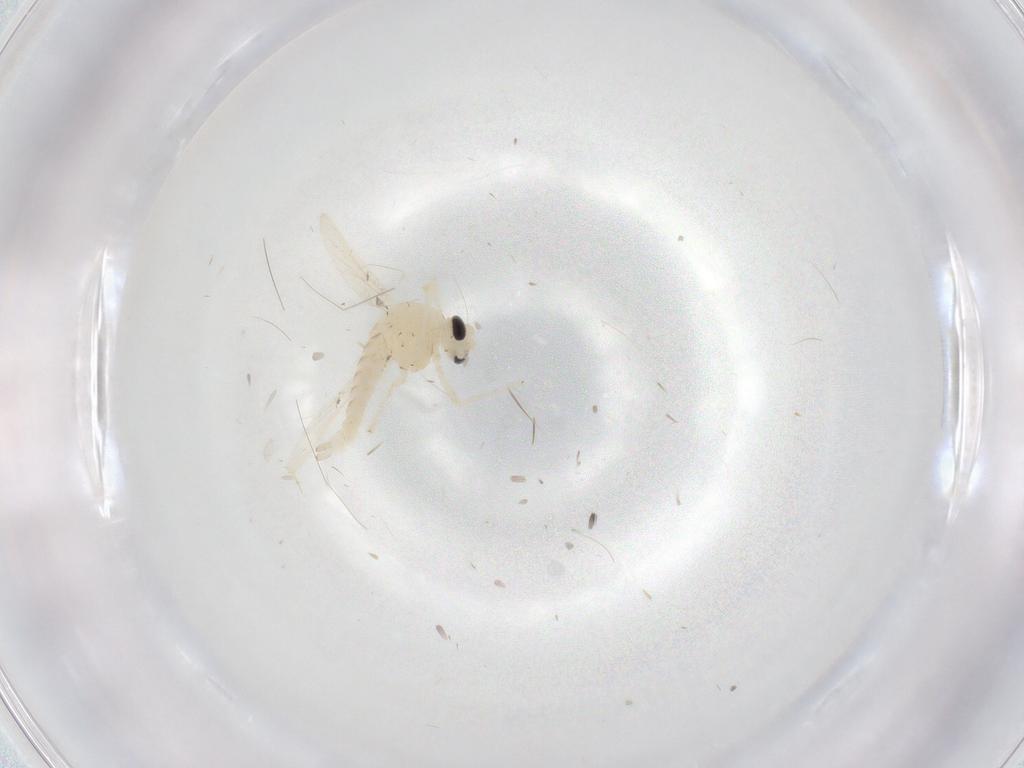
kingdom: Animalia
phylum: Arthropoda
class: Insecta
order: Diptera
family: Chironomidae
